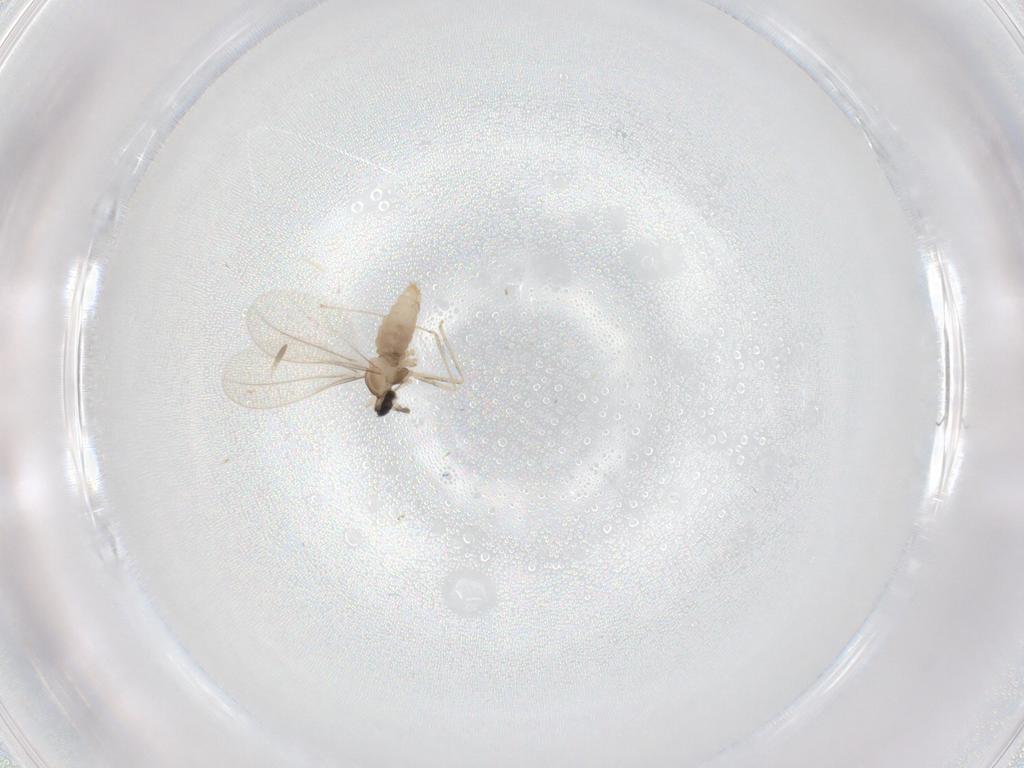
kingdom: Animalia
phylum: Arthropoda
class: Insecta
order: Diptera
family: Cecidomyiidae
